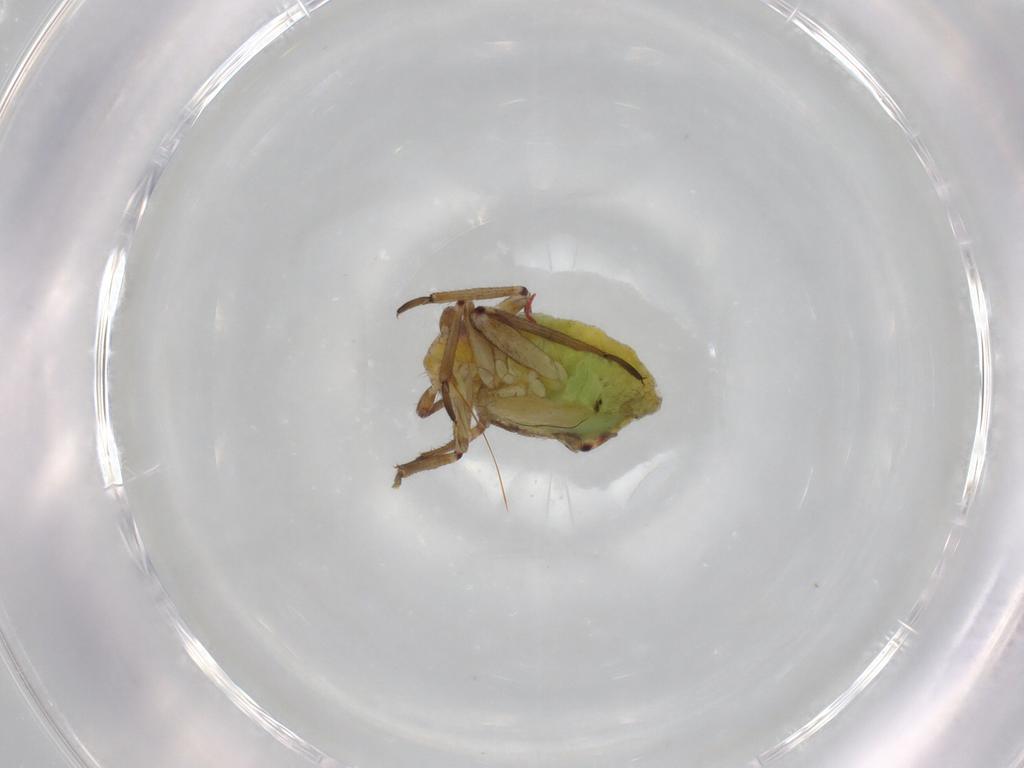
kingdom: Animalia
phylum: Arthropoda
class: Insecta
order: Hemiptera
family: Miridae
